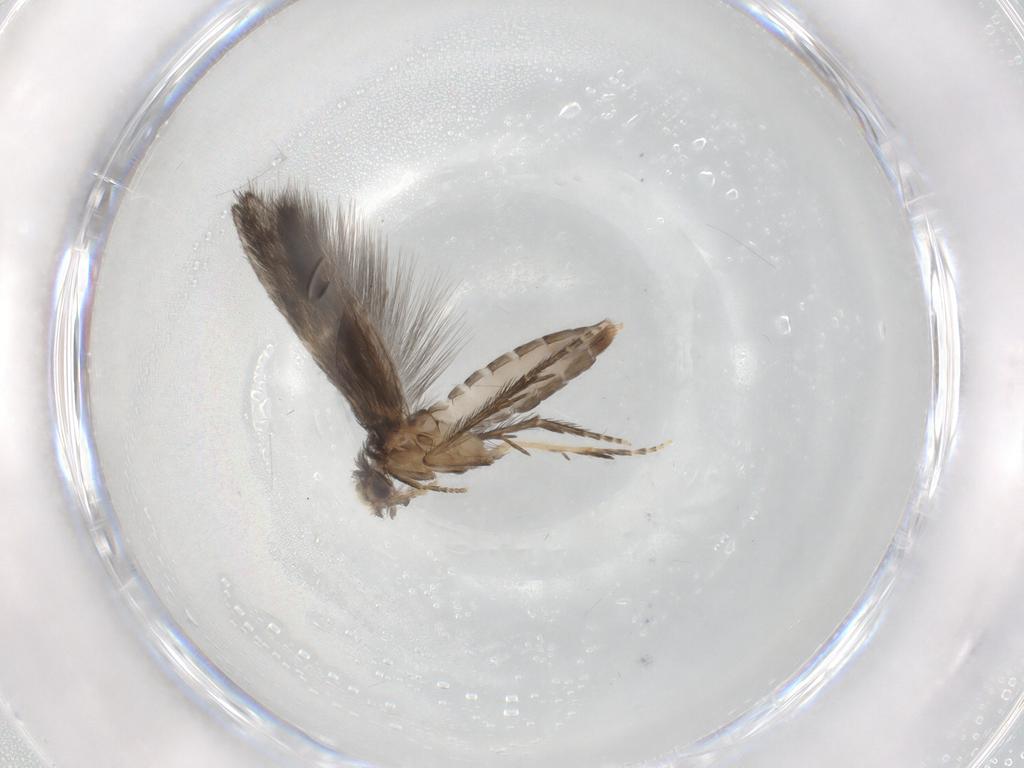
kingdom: Animalia
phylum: Arthropoda
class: Insecta
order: Trichoptera
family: Hydroptilidae
